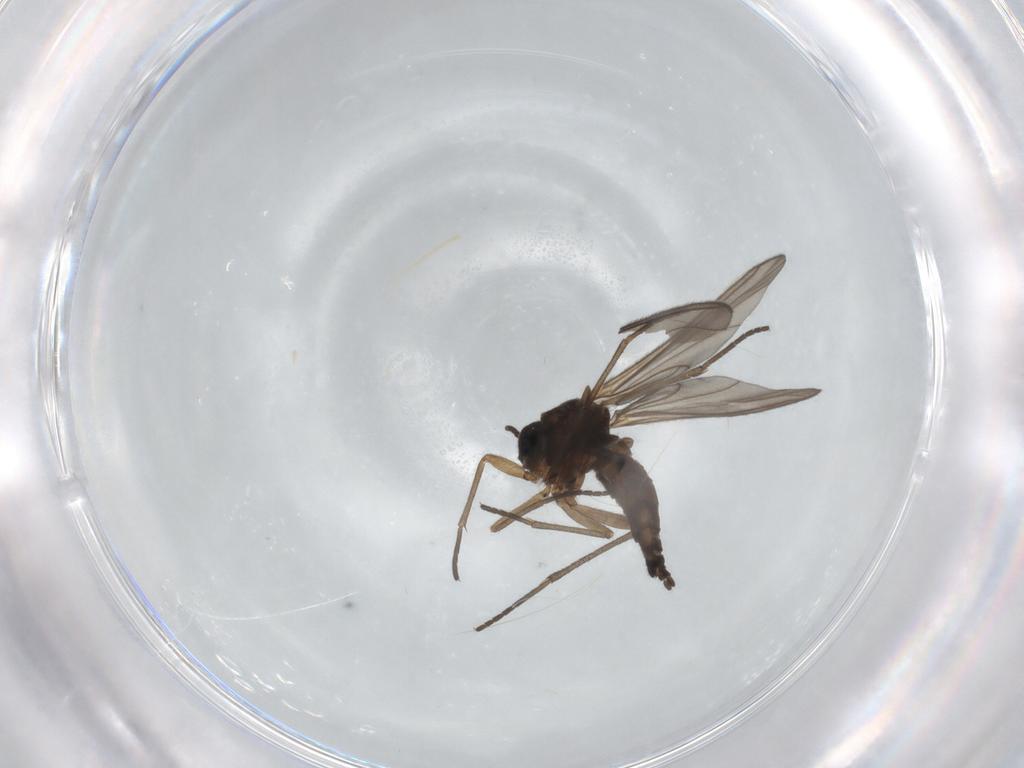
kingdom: Animalia
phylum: Arthropoda
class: Insecta
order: Diptera
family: Sciaridae
